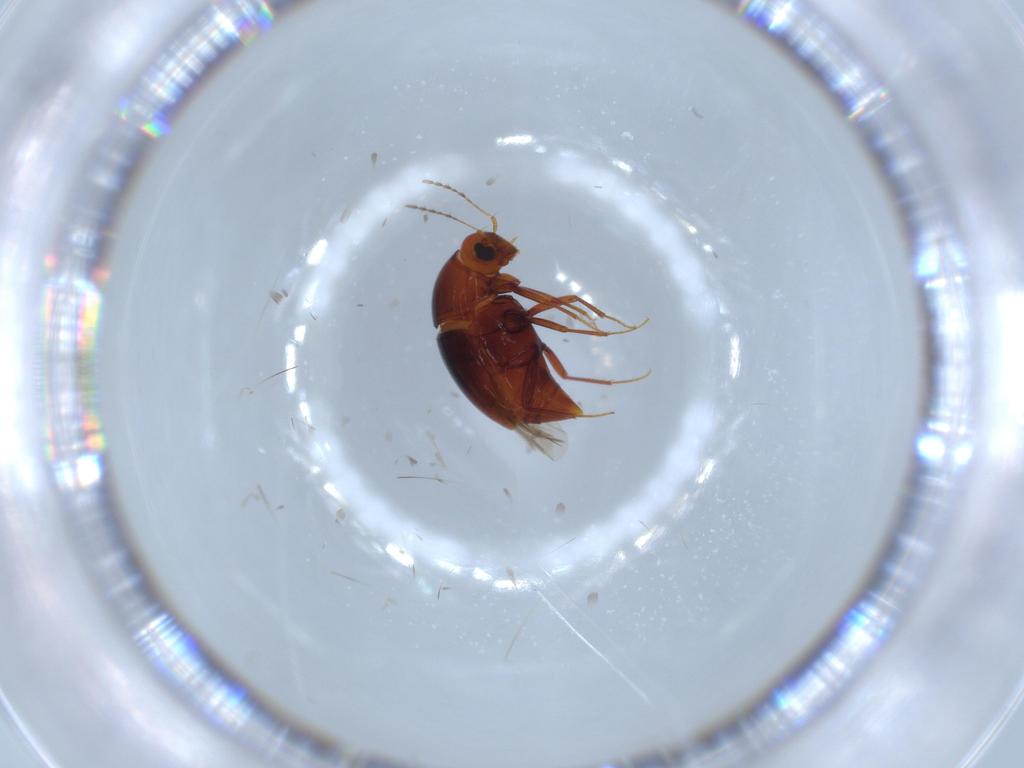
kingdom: Animalia
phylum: Arthropoda
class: Insecta
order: Coleoptera
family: Staphylinidae
